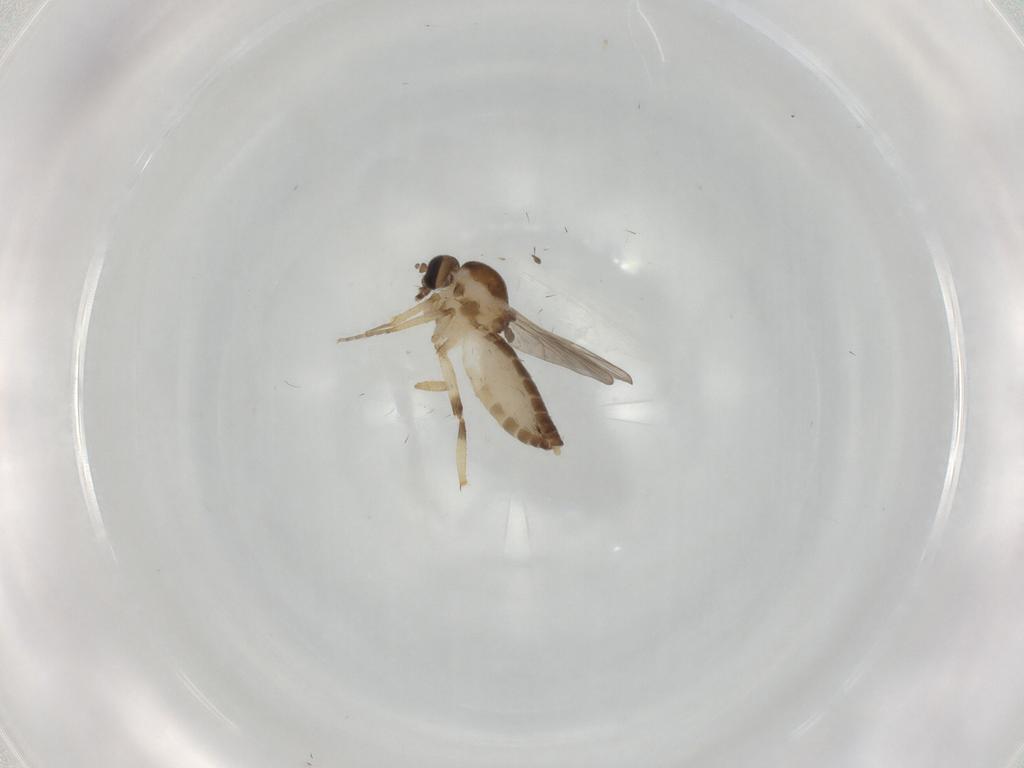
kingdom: Animalia
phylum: Arthropoda
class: Insecta
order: Diptera
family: Ceratopogonidae
